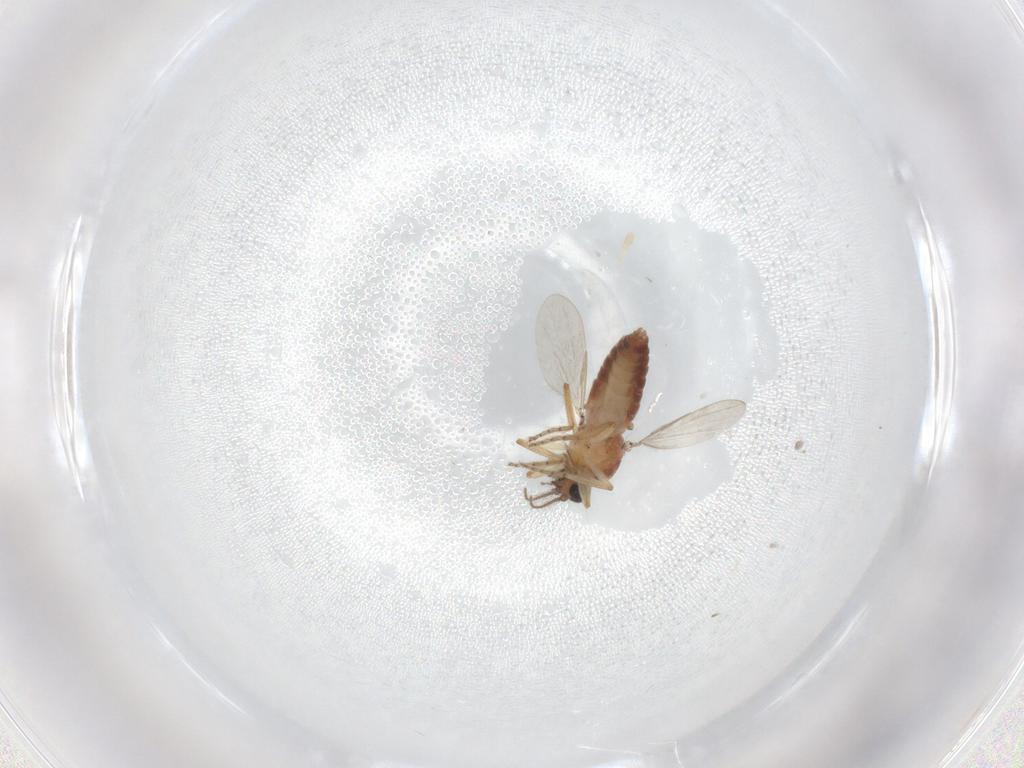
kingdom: Animalia
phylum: Arthropoda
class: Insecta
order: Diptera
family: Ceratopogonidae
